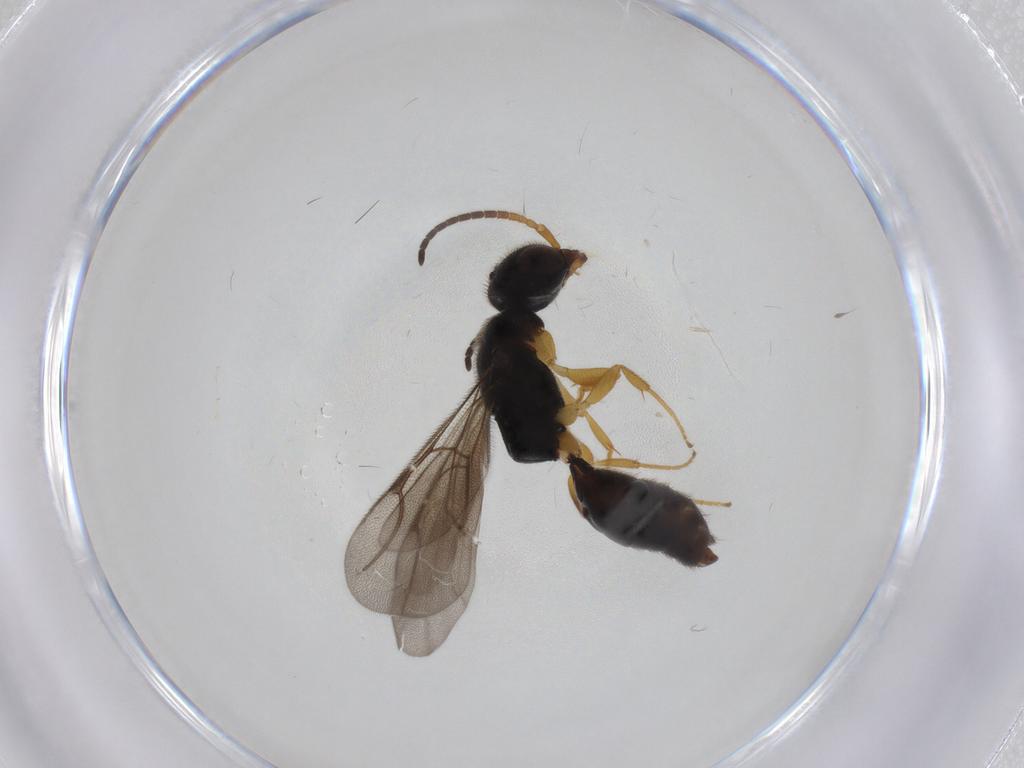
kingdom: Animalia
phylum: Arthropoda
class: Insecta
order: Hymenoptera
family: Bethylidae
